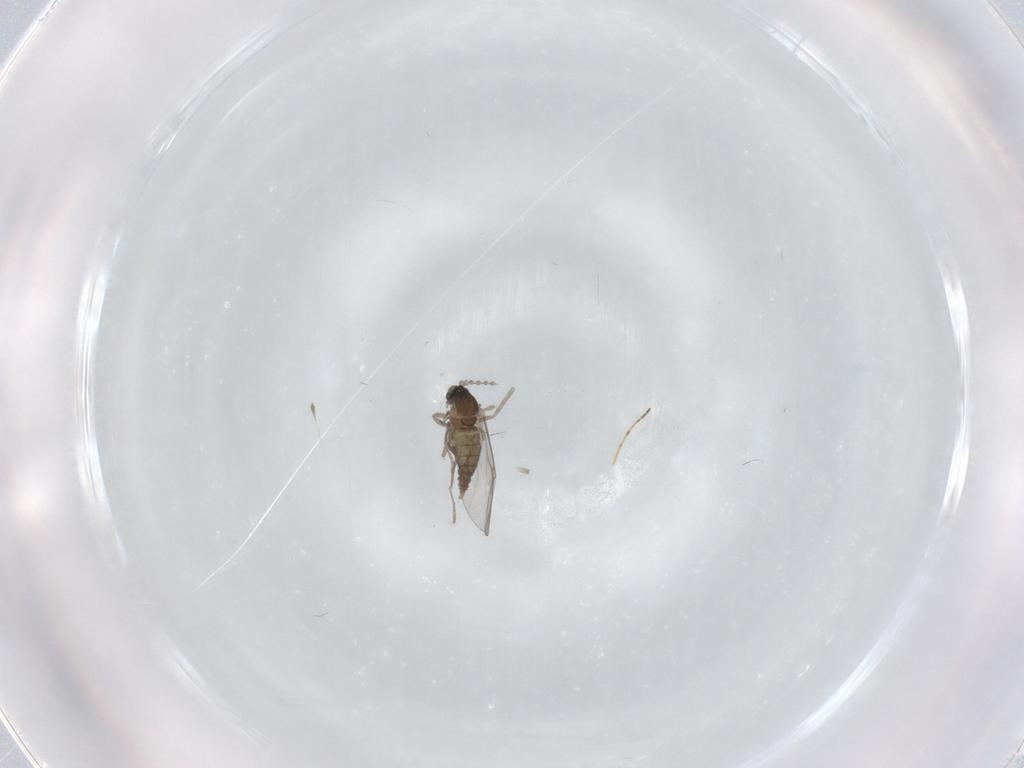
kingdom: Animalia
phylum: Arthropoda
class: Insecta
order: Diptera
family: Cecidomyiidae
